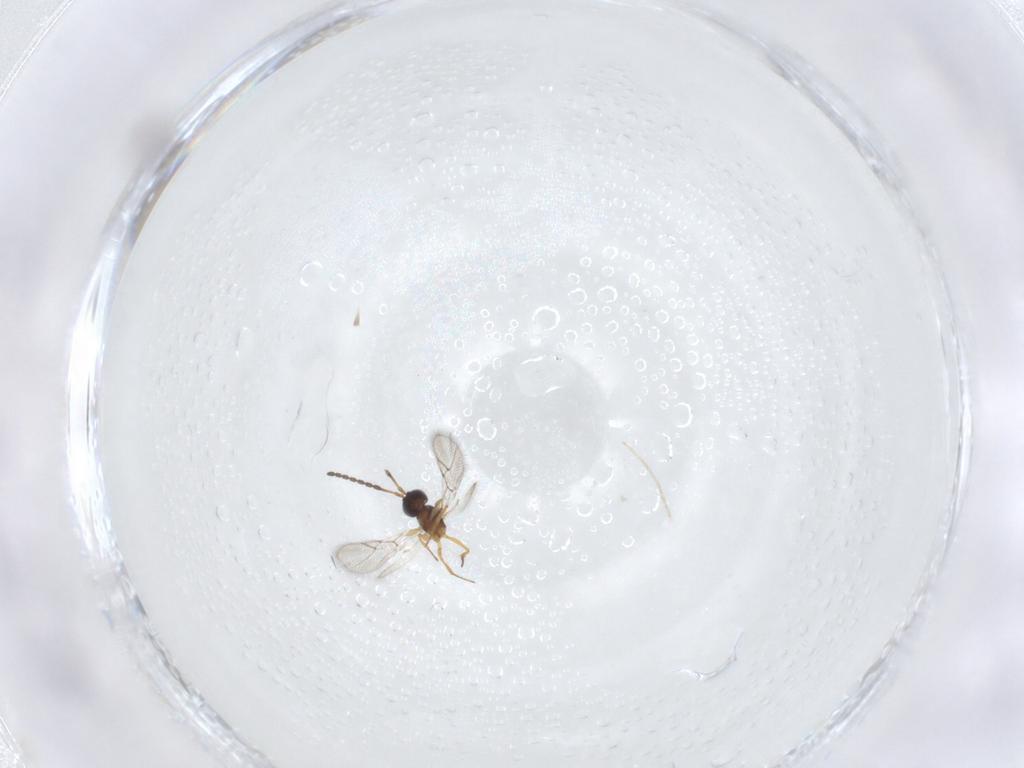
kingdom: Animalia
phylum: Arthropoda
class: Insecta
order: Hymenoptera
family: Figitidae
